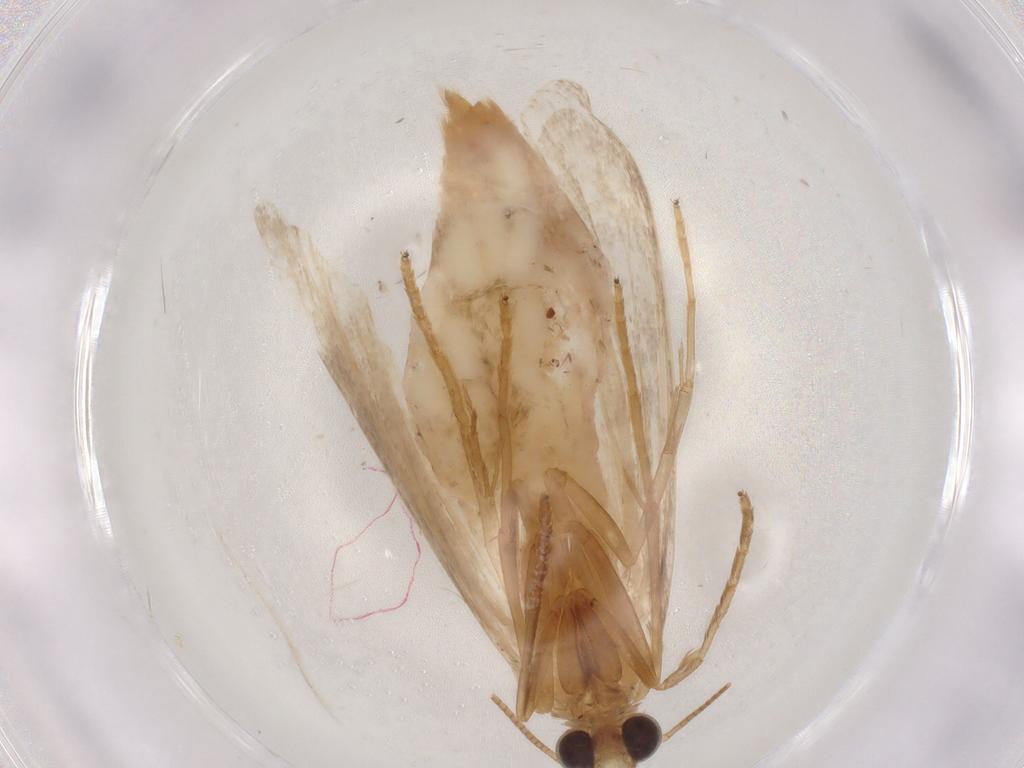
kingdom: Animalia
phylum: Arthropoda
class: Insecta
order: Lepidoptera
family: Pyralidae
